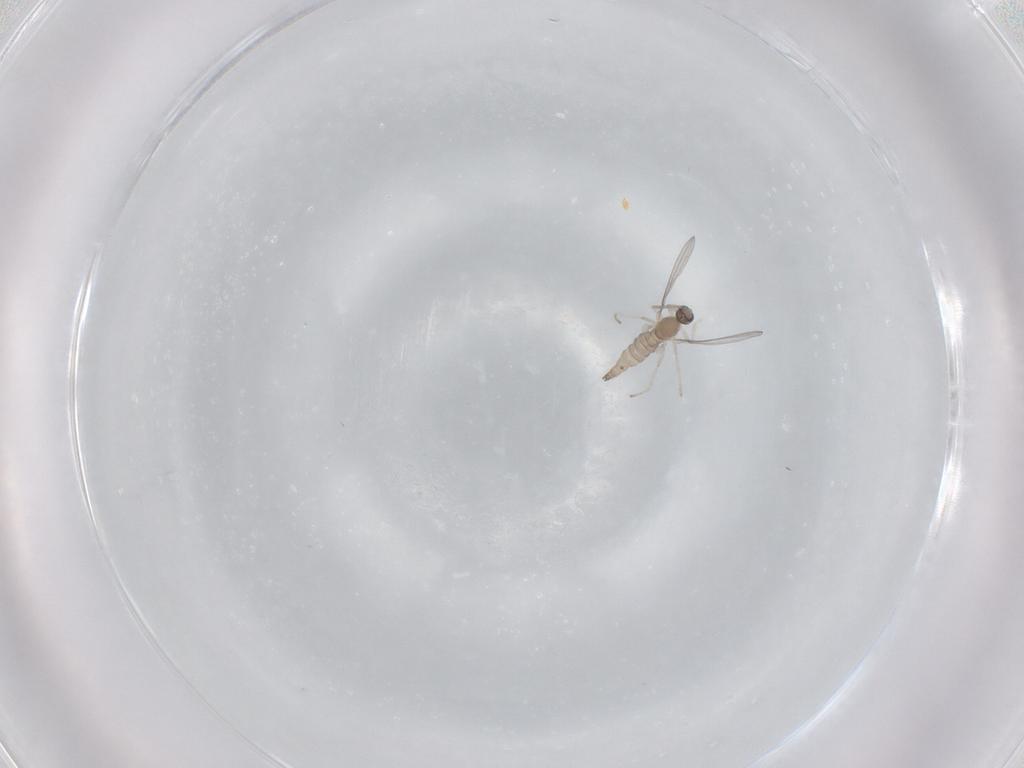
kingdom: Animalia
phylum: Arthropoda
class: Insecta
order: Diptera
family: Cecidomyiidae
